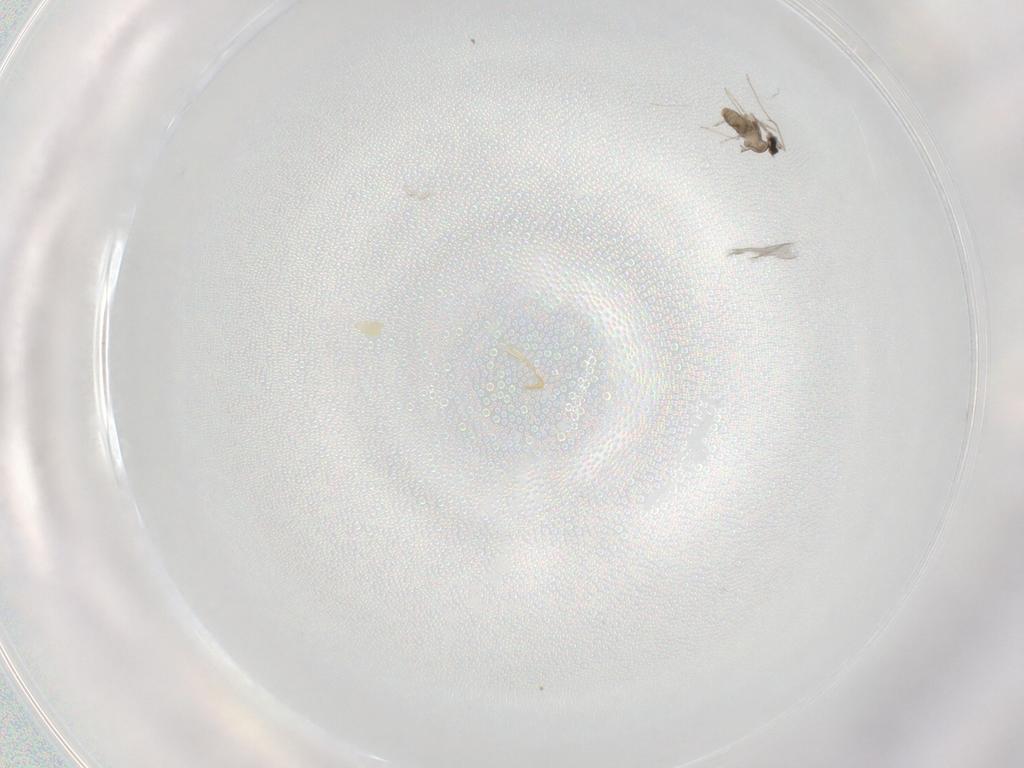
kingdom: Animalia
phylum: Arthropoda
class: Insecta
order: Diptera
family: Cecidomyiidae
